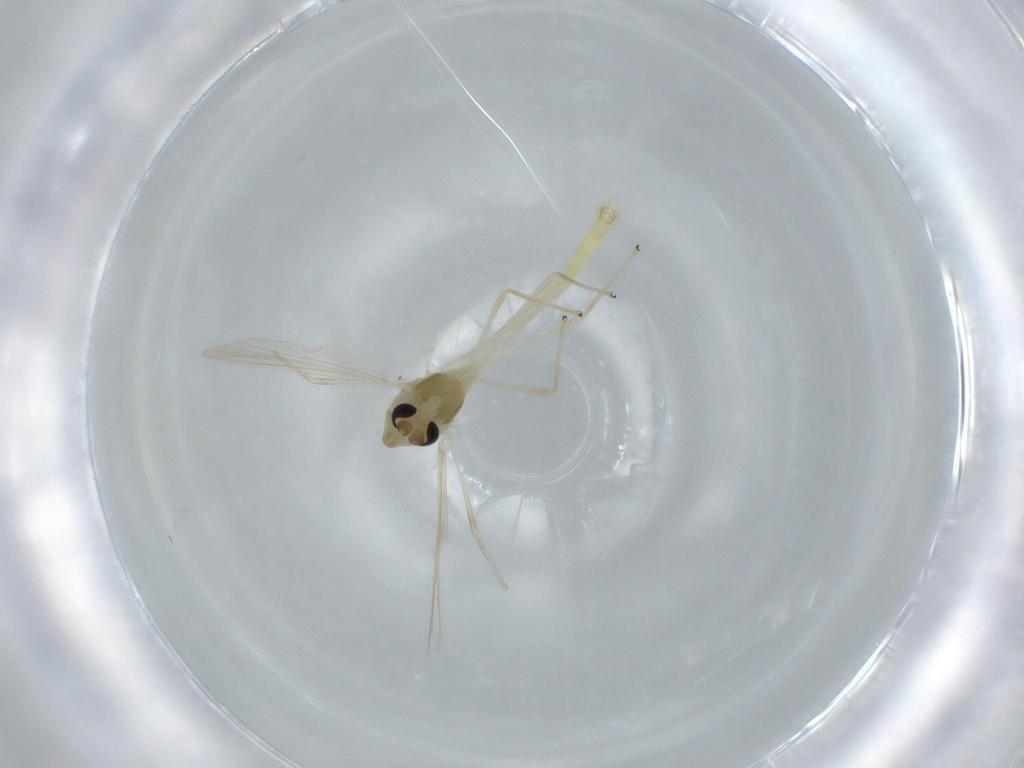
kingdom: Animalia
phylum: Arthropoda
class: Insecta
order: Diptera
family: Chironomidae
